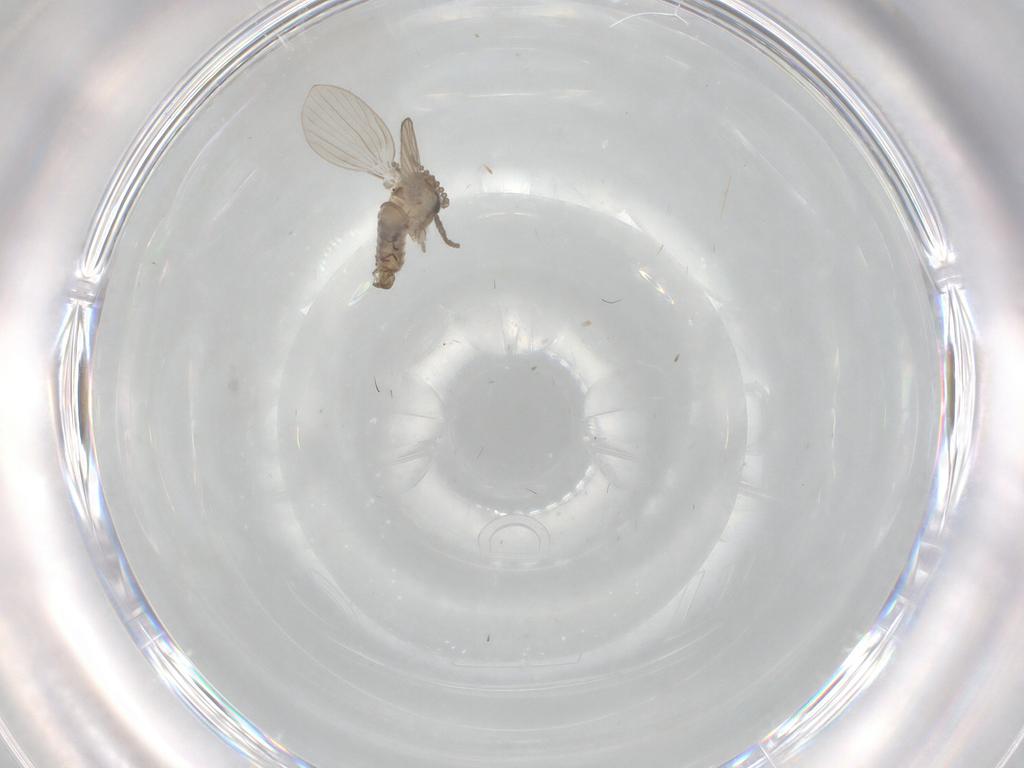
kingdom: Animalia
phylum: Arthropoda
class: Insecta
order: Diptera
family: Psychodidae
